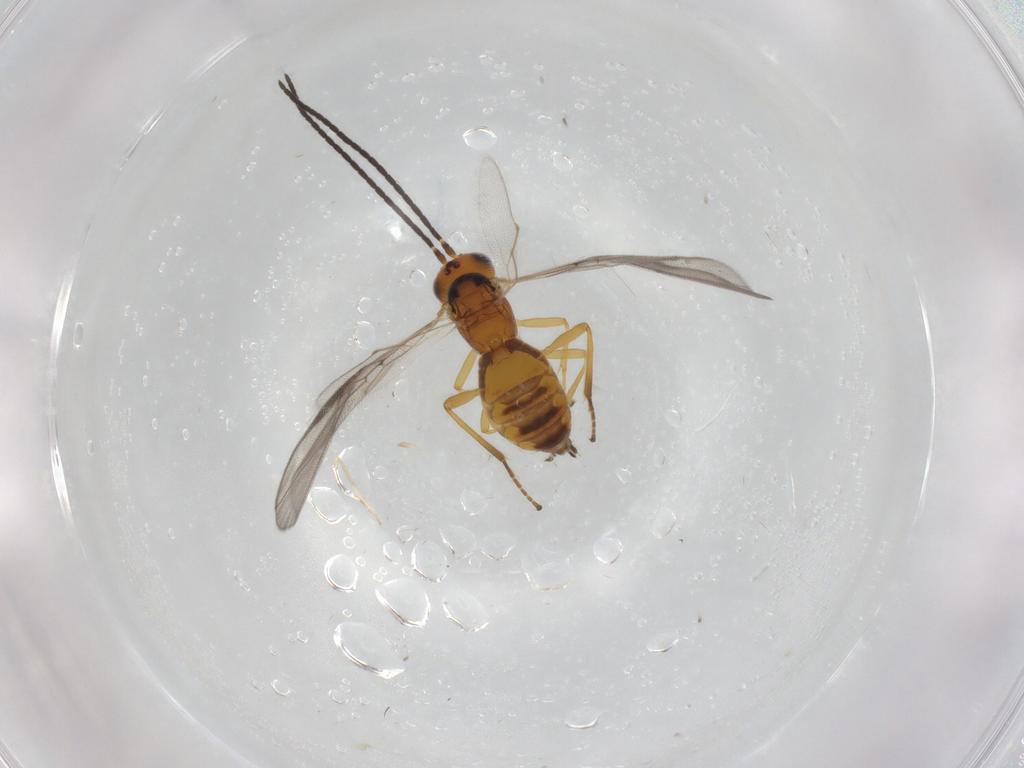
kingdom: Animalia
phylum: Arthropoda
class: Insecta
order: Hymenoptera
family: Braconidae
